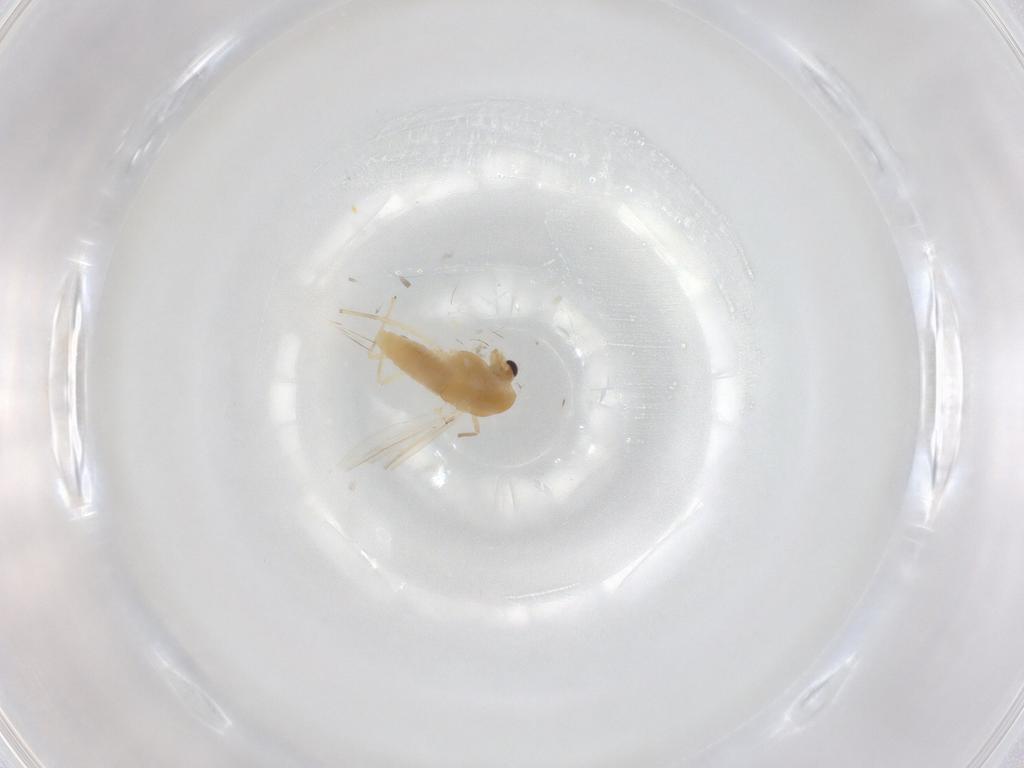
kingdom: Animalia
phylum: Arthropoda
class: Insecta
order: Diptera
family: Chironomidae
